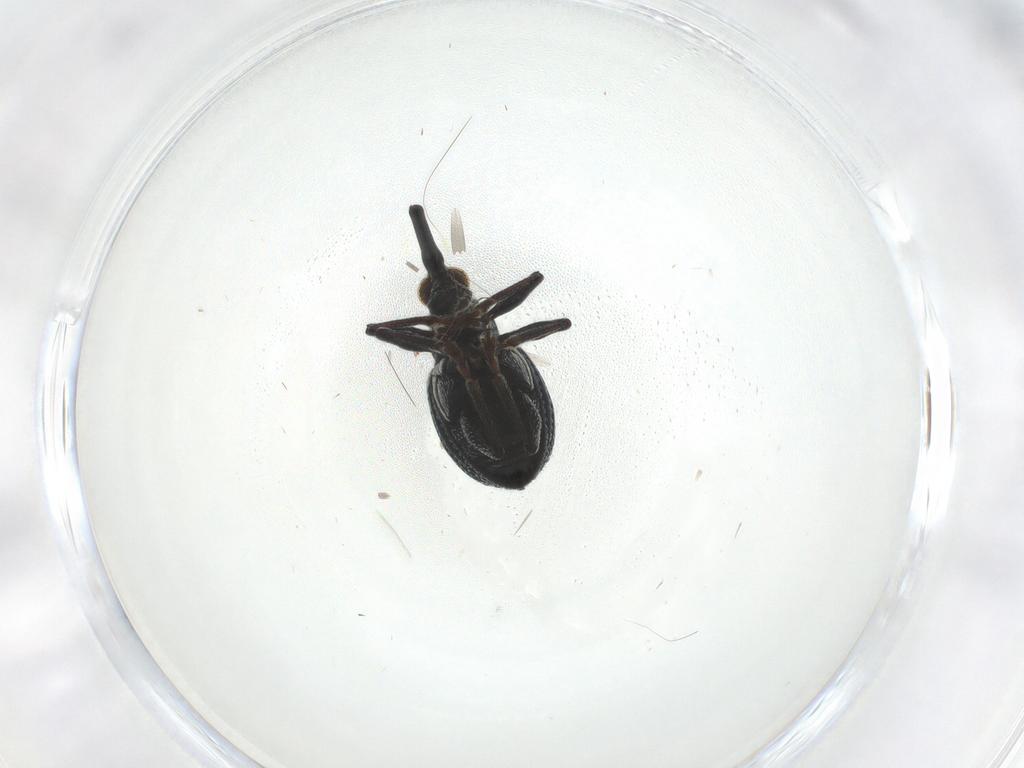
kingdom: Animalia
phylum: Arthropoda
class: Insecta
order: Coleoptera
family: Brentidae
